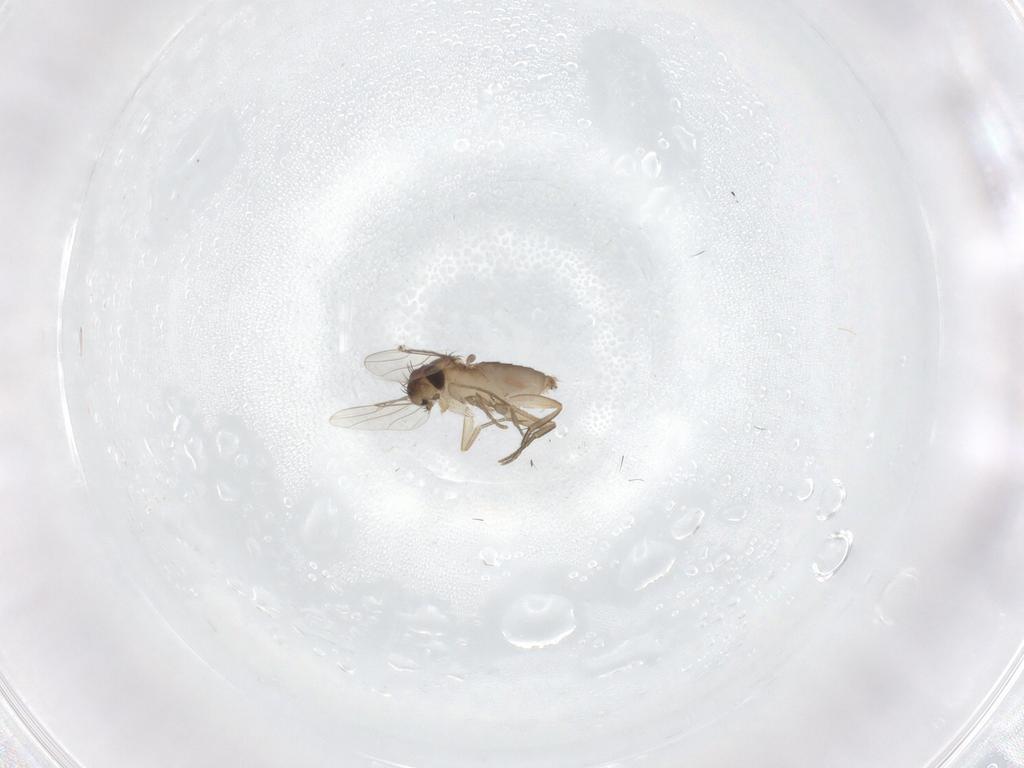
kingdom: Animalia
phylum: Arthropoda
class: Insecta
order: Diptera
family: Phoridae
